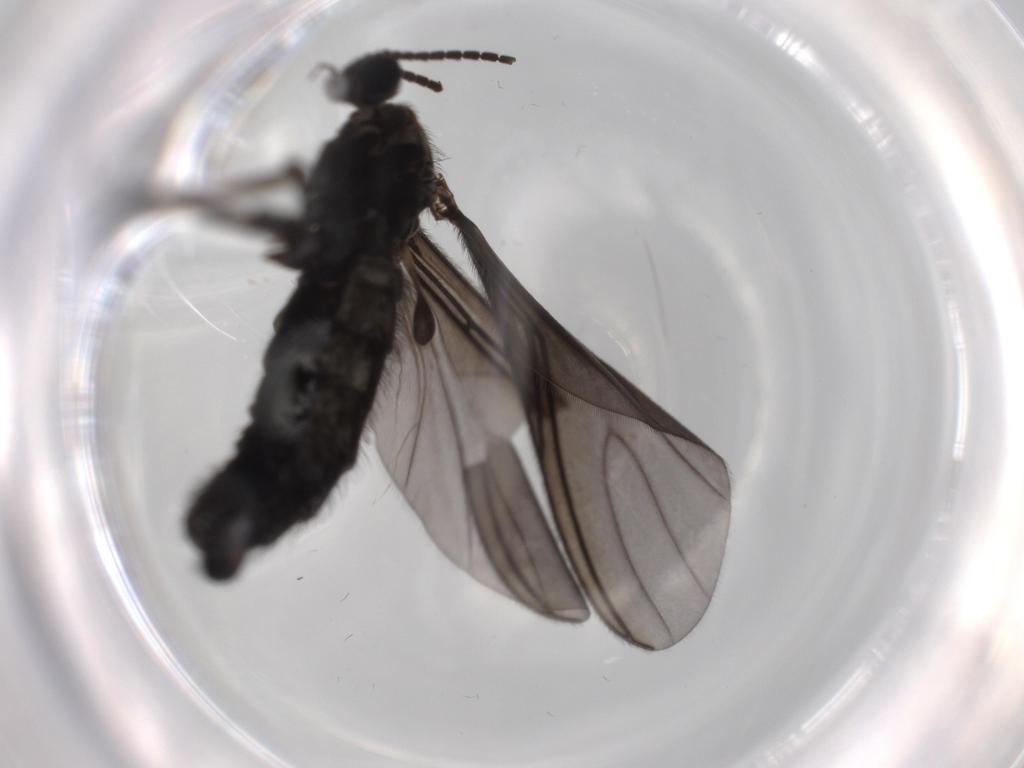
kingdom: Animalia
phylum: Arthropoda
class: Insecta
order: Diptera
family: Sciaridae
